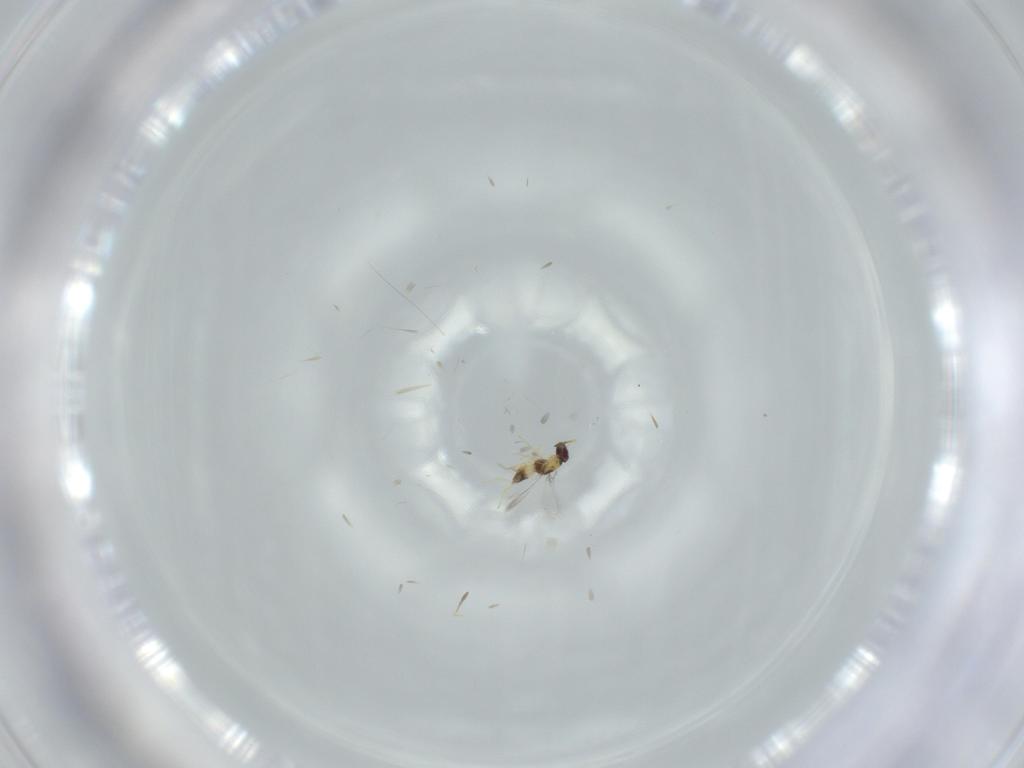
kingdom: Animalia
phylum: Arthropoda
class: Insecta
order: Hymenoptera
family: Mymaridae
